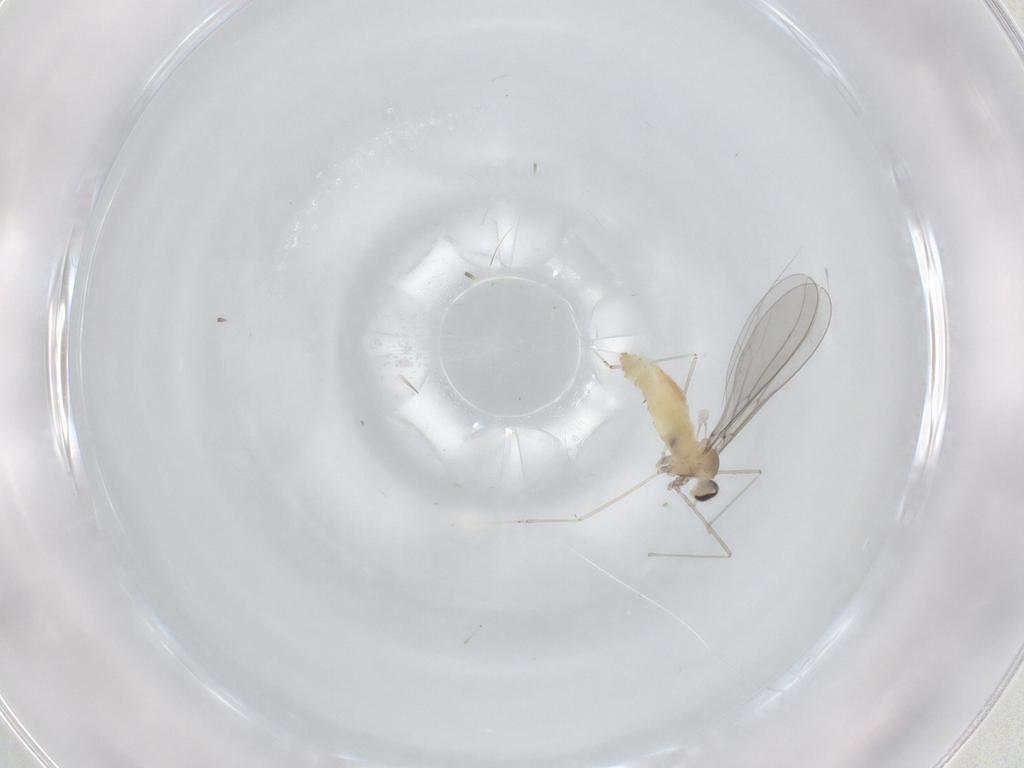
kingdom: Animalia
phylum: Arthropoda
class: Insecta
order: Diptera
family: Cecidomyiidae
